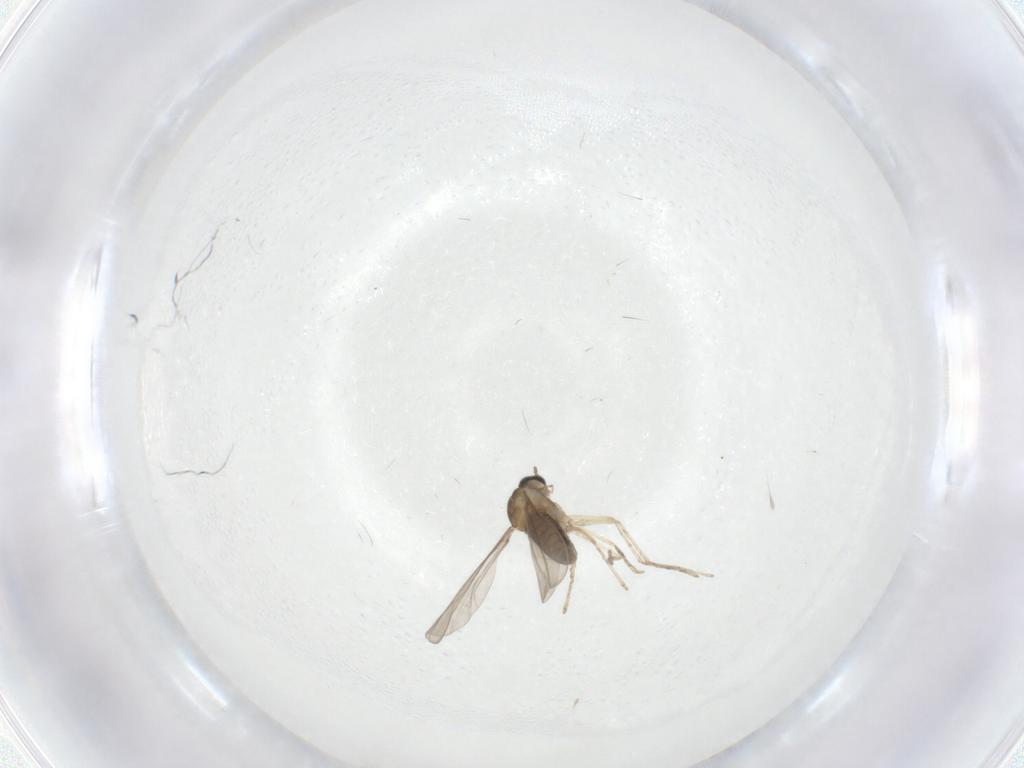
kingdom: Animalia
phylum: Arthropoda
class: Insecta
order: Diptera
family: Cecidomyiidae
